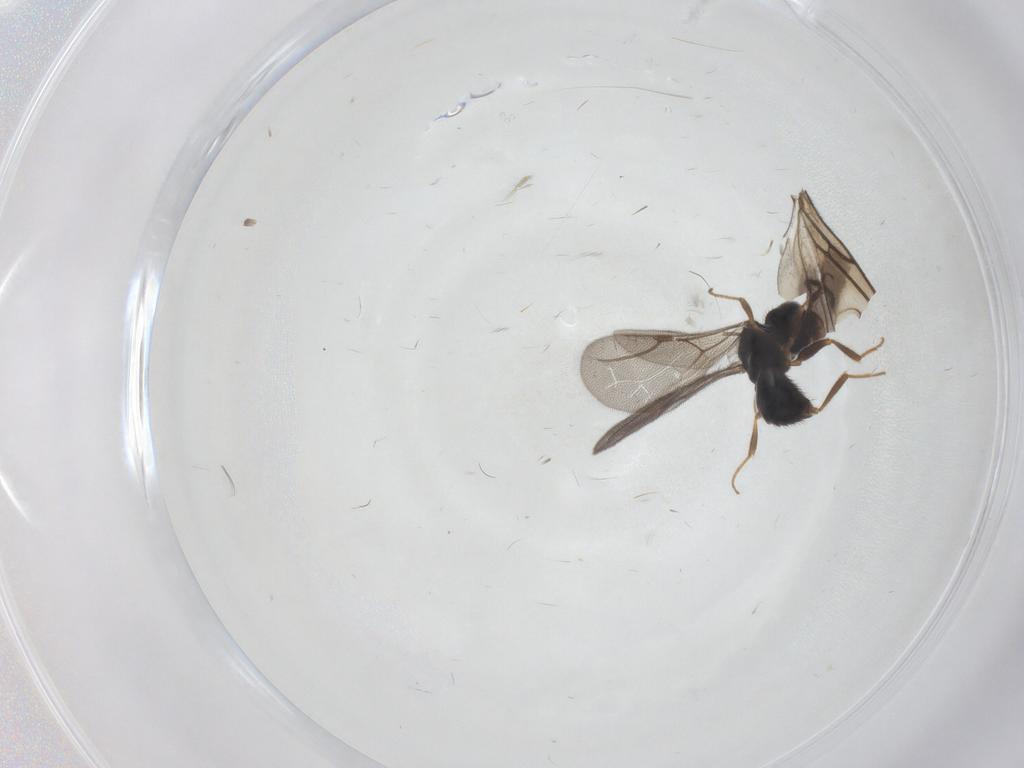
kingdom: Animalia
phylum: Arthropoda
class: Insecta
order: Hymenoptera
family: Bethylidae
